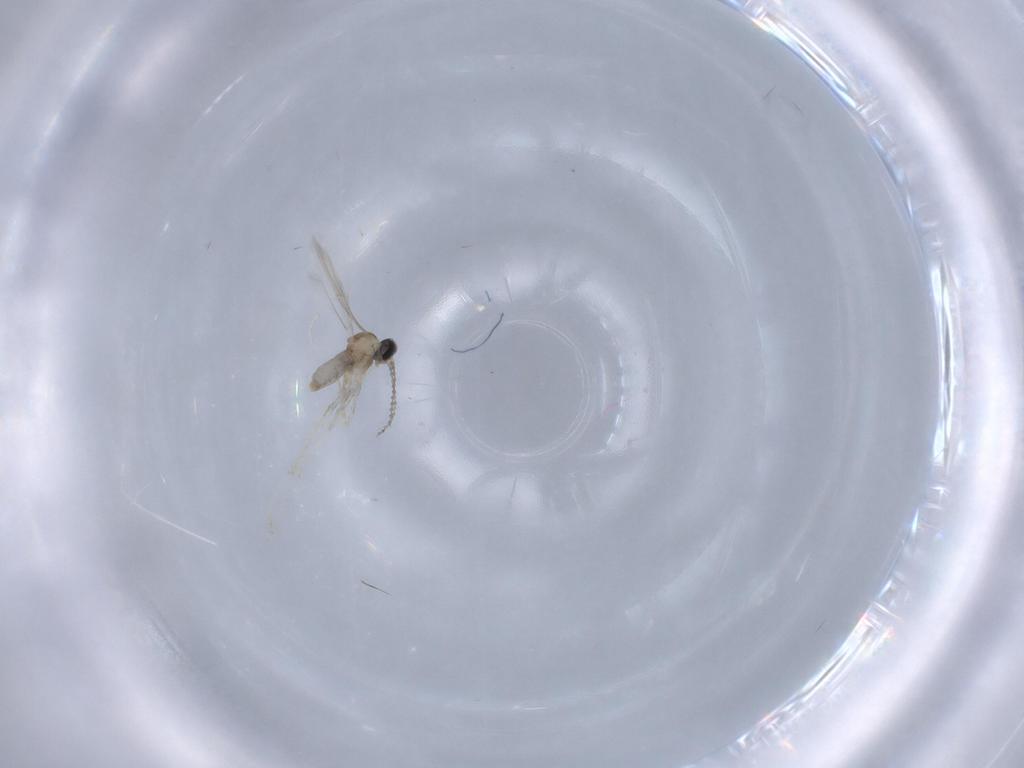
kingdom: Animalia
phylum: Arthropoda
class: Insecta
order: Diptera
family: Cecidomyiidae
